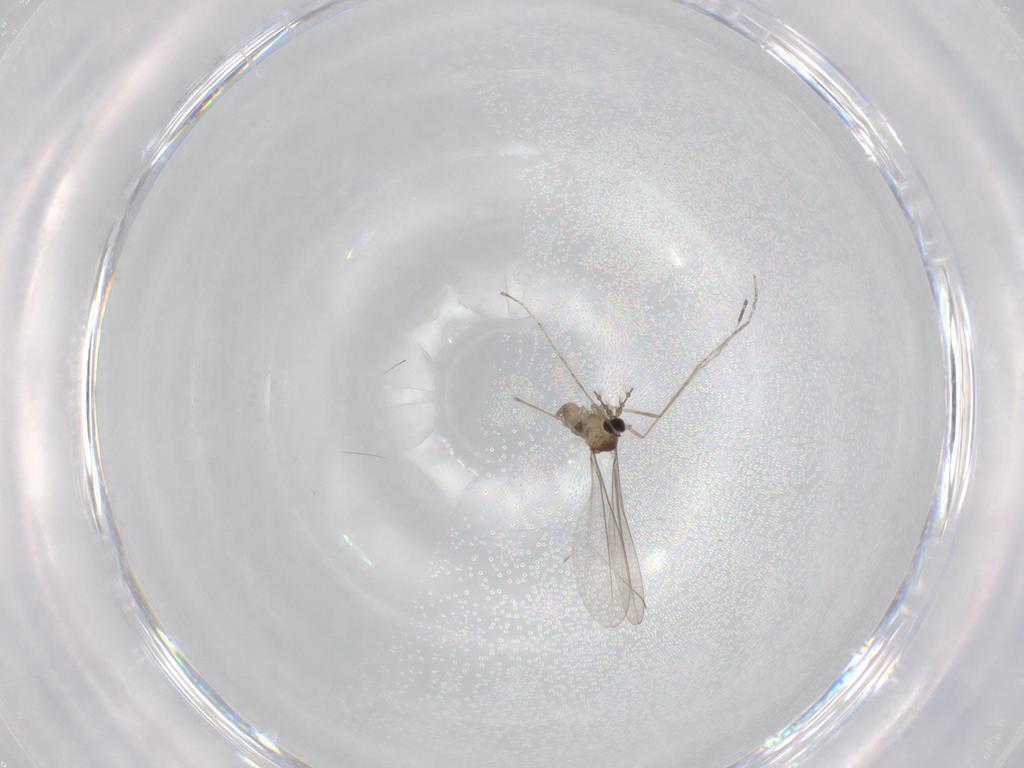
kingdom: Animalia
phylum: Arthropoda
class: Insecta
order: Diptera
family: Cecidomyiidae
